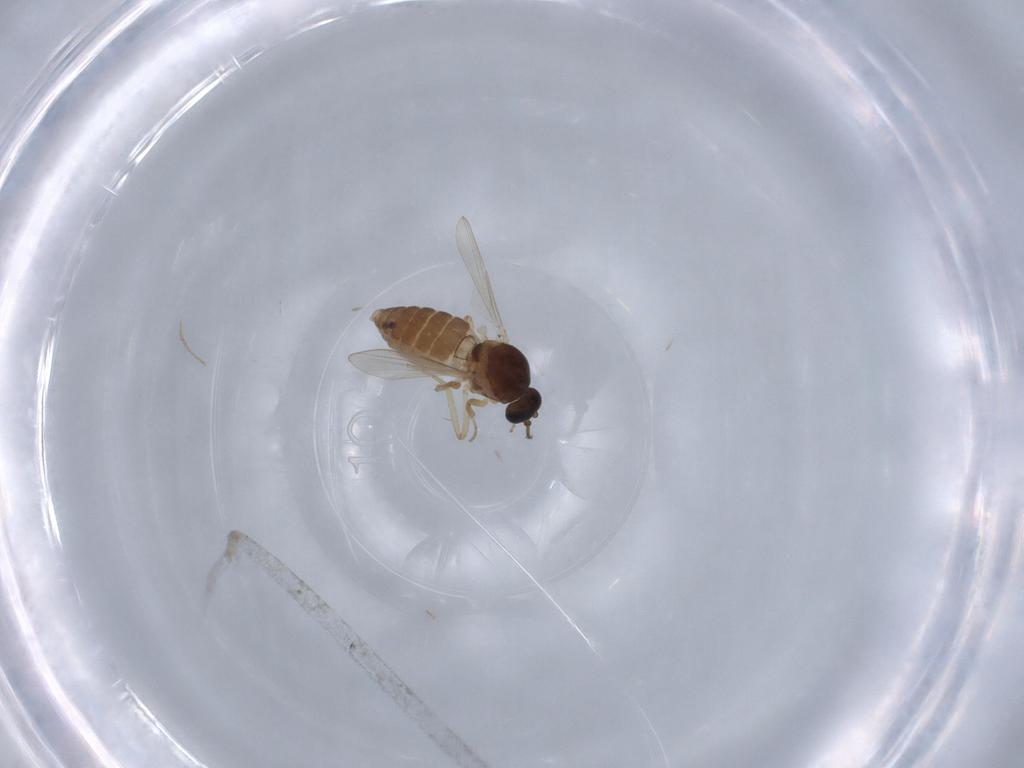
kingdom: Animalia
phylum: Arthropoda
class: Insecta
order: Diptera
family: Ceratopogonidae
